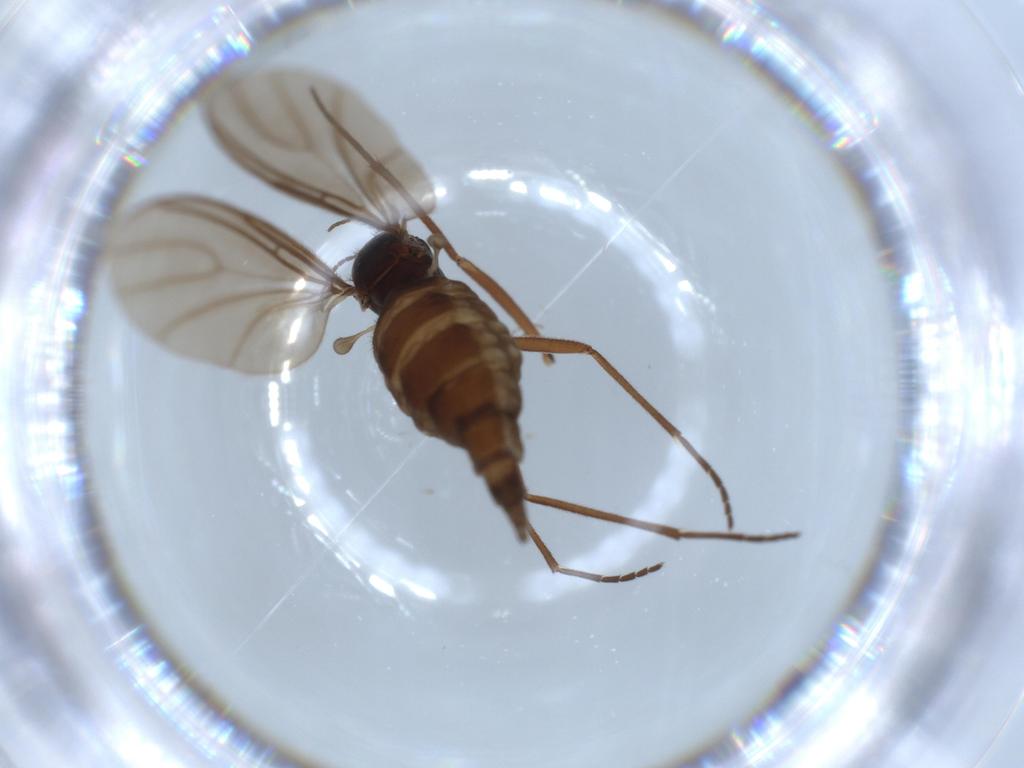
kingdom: Animalia
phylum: Arthropoda
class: Insecta
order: Diptera
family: Sciaridae
